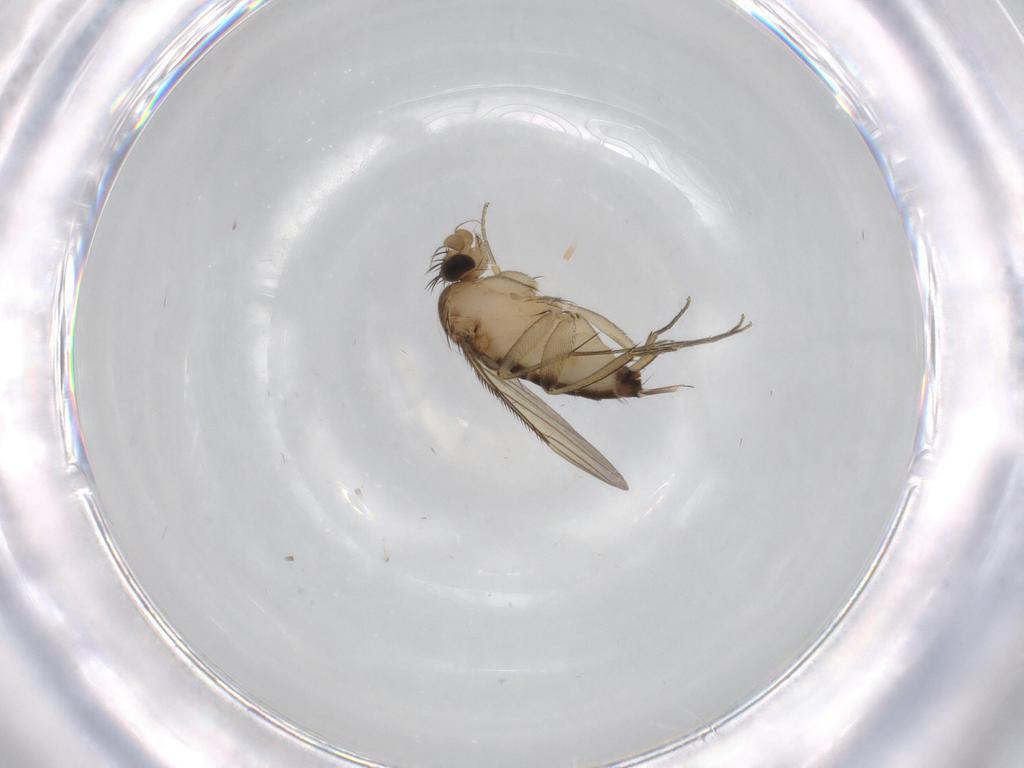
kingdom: Animalia
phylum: Arthropoda
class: Insecta
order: Diptera
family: Phoridae
